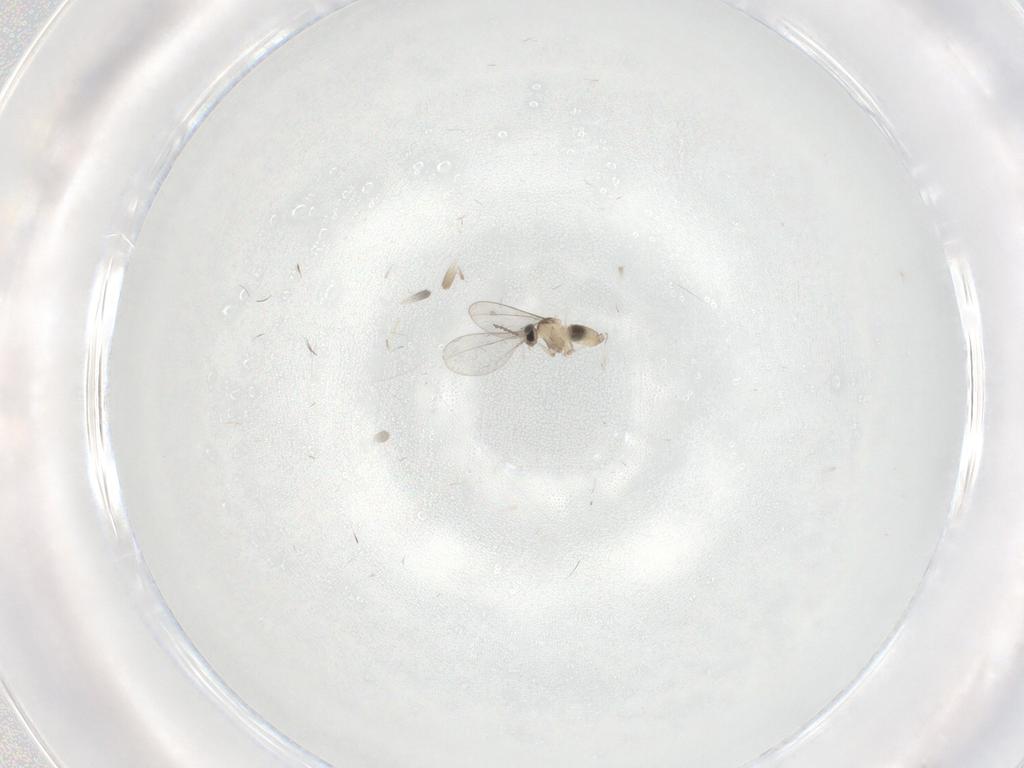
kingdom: Animalia
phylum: Arthropoda
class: Insecta
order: Diptera
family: Cecidomyiidae
